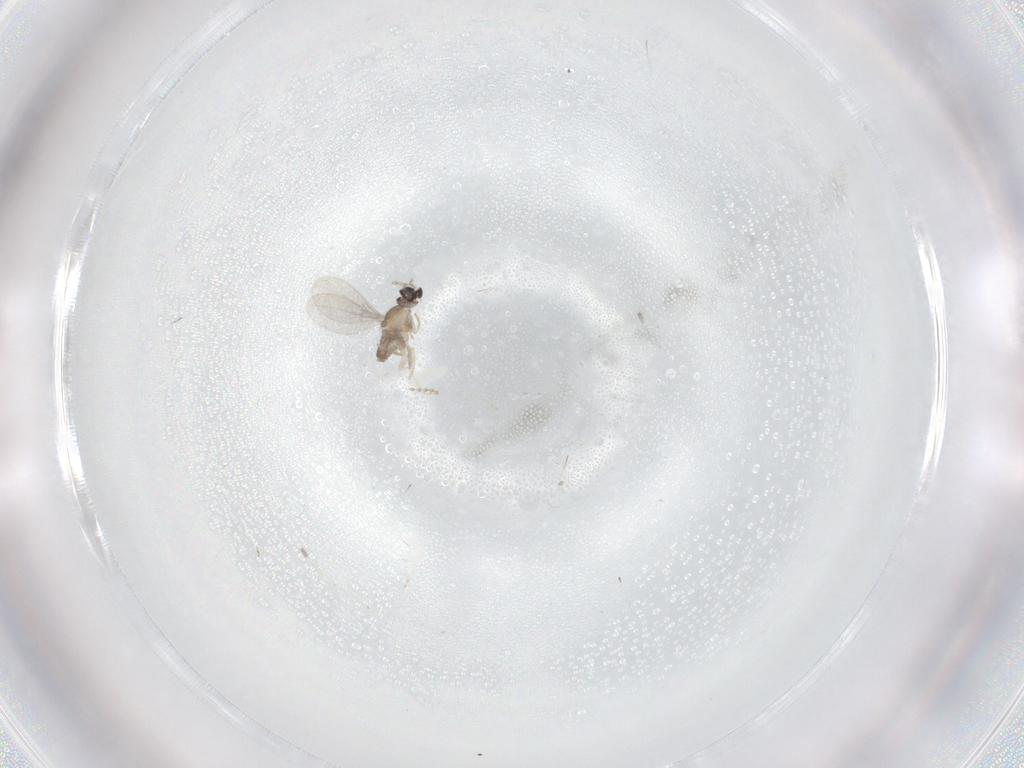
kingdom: Animalia
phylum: Arthropoda
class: Insecta
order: Diptera
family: Cecidomyiidae
